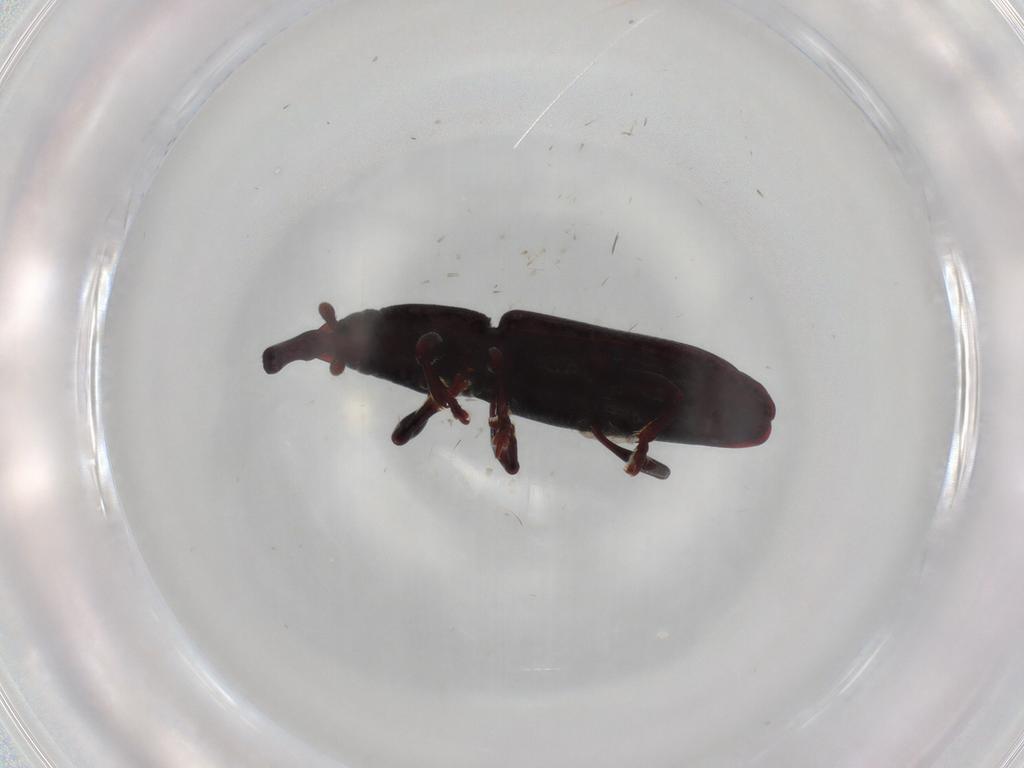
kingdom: Animalia
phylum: Arthropoda
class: Insecta
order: Coleoptera
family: Curculionidae
